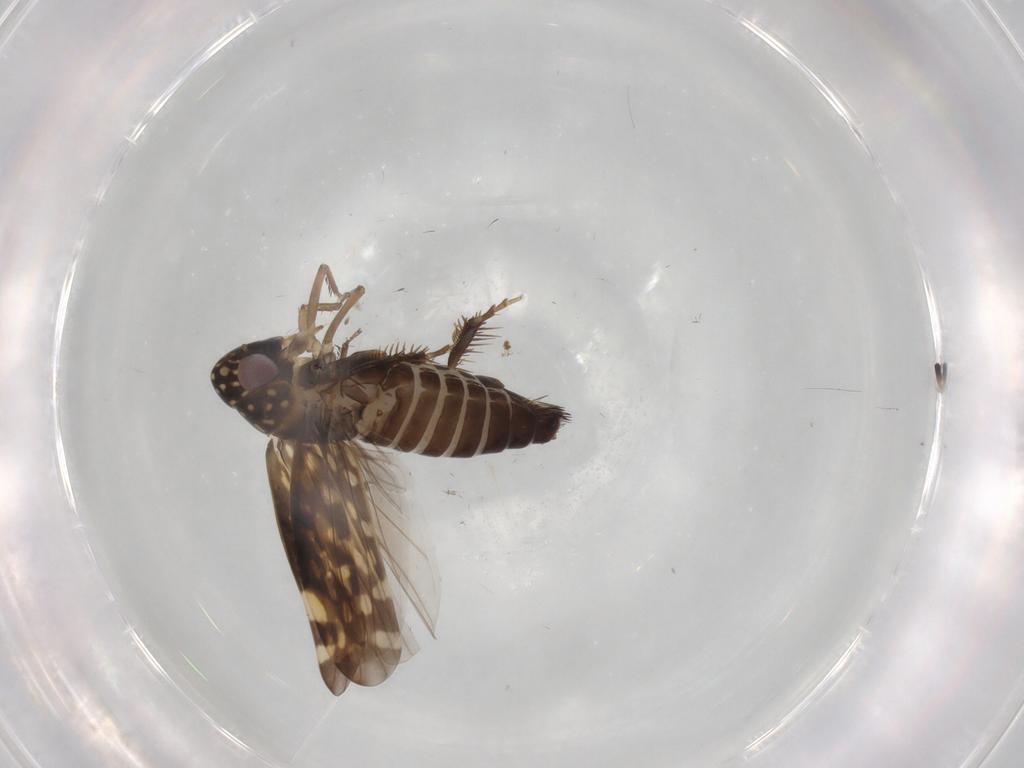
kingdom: Animalia
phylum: Arthropoda
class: Insecta
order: Hemiptera
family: Cicadellidae
